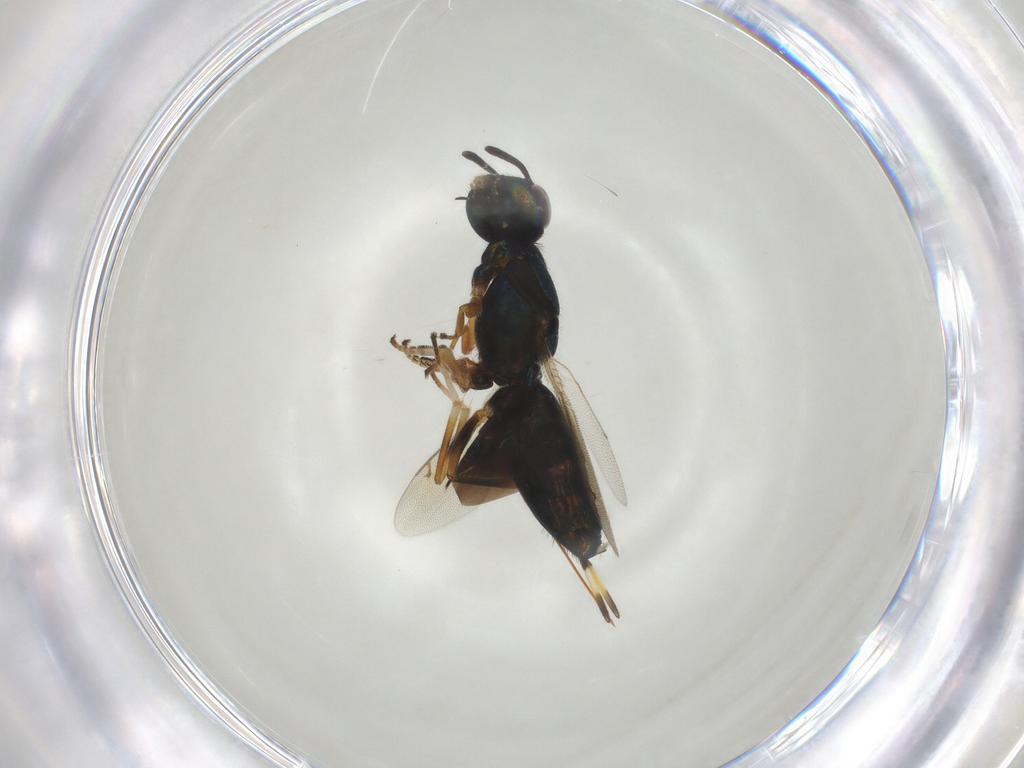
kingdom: Animalia
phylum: Arthropoda
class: Insecta
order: Hymenoptera
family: Eupelmidae
